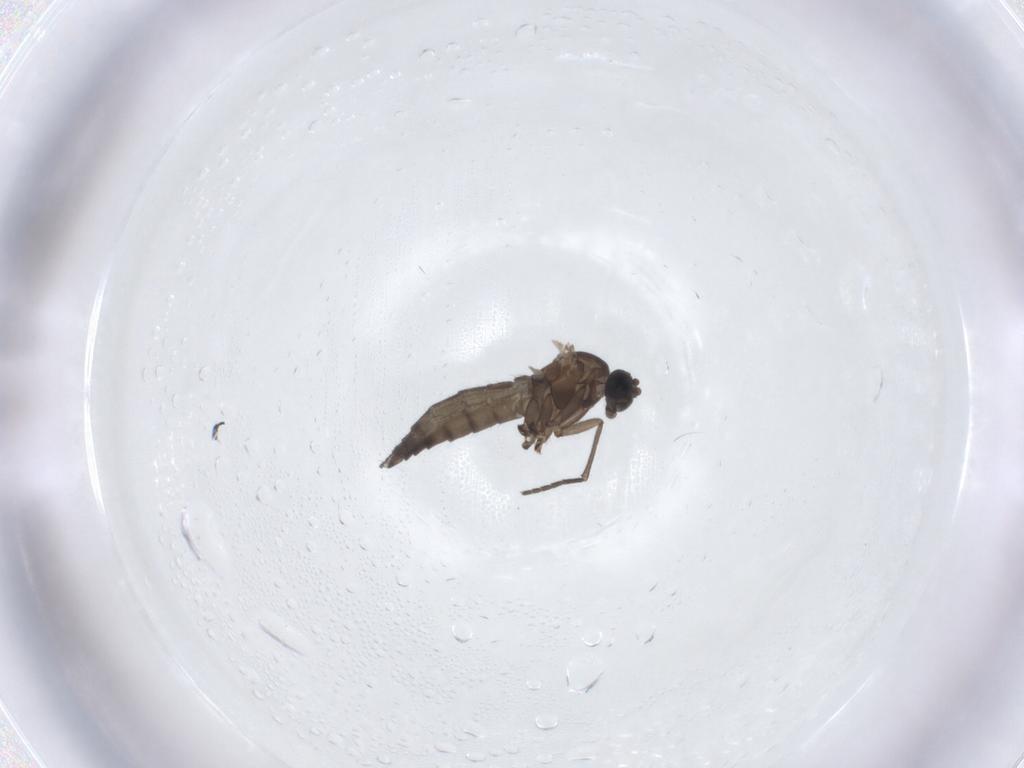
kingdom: Animalia
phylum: Arthropoda
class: Insecta
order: Diptera
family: Sciaridae
